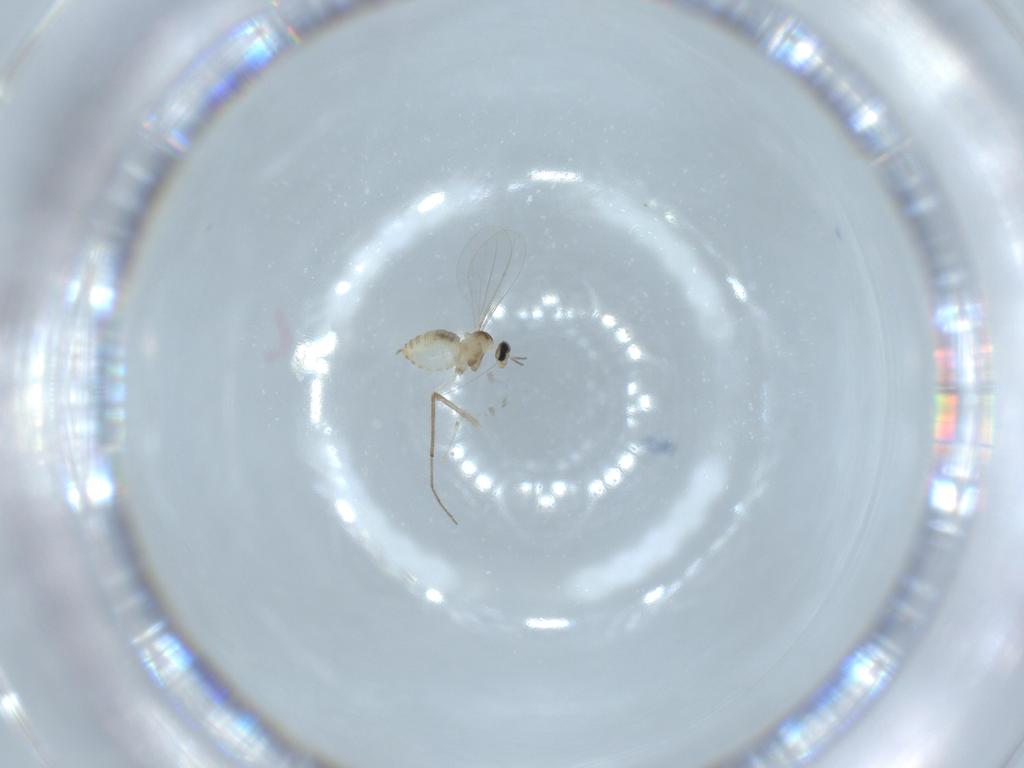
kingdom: Animalia
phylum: Arthropoda
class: Insecta
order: Diptera
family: Cecidomyiidae
